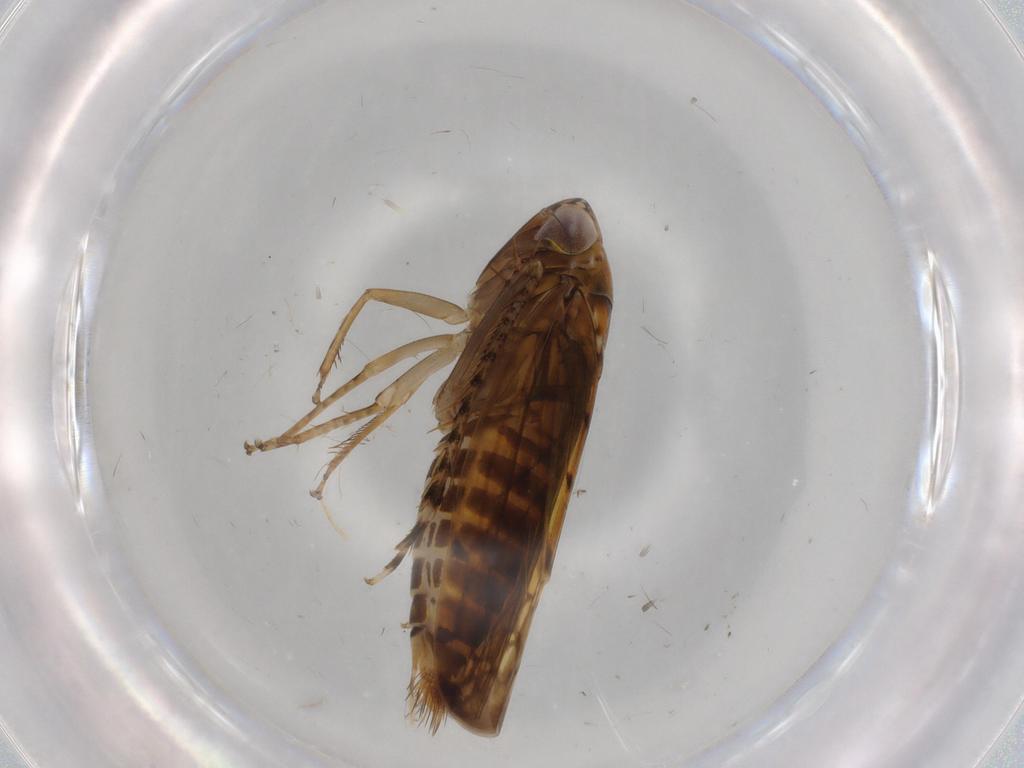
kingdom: Animalia
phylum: Arthropoda
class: Insecta
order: Hemiptera
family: Cicadellidae
